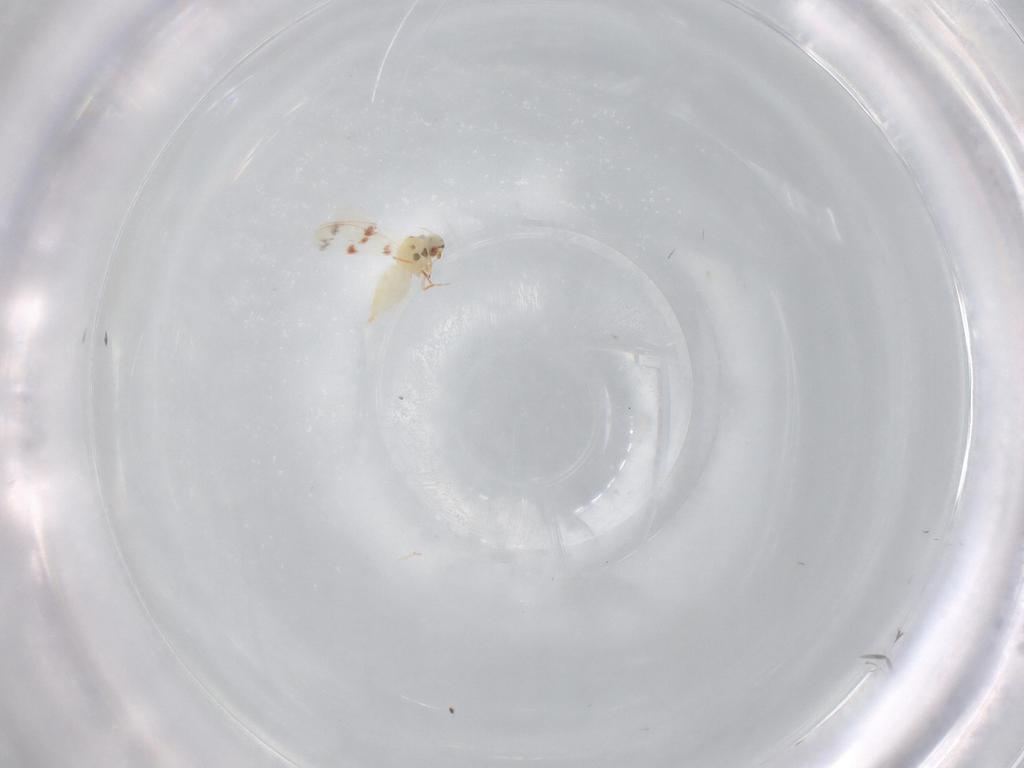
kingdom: Animalia
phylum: Arthropoda
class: Insecta
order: Hemiptera
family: Aleyrodidae
